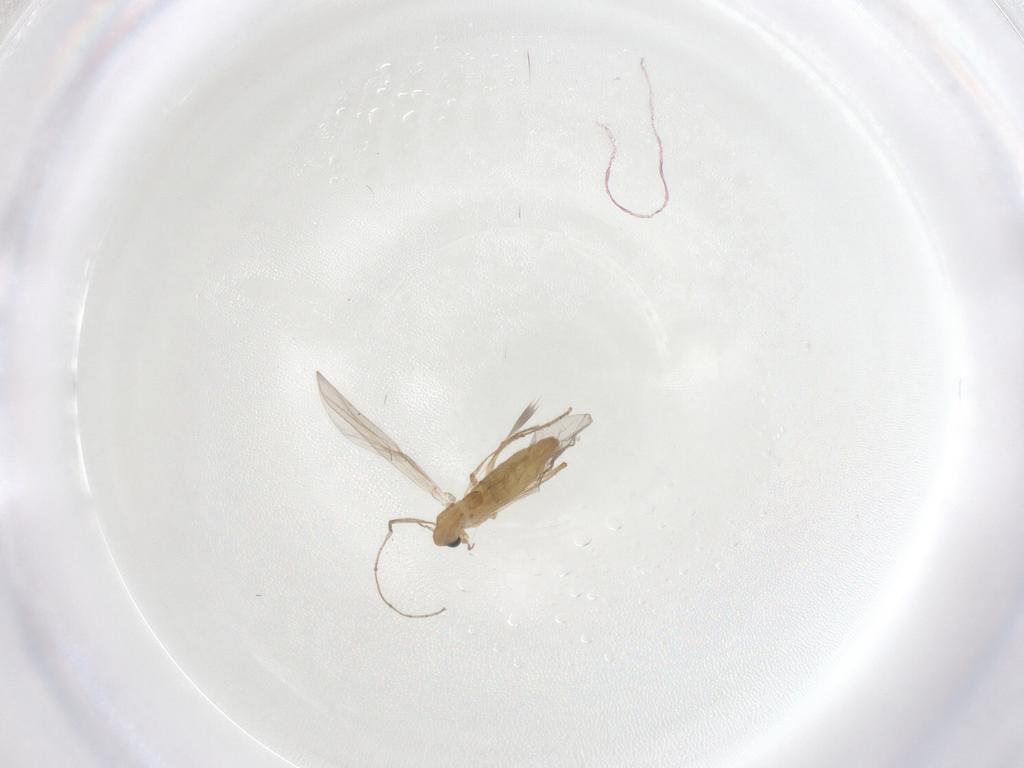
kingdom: Animalia
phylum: Arthropoda
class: Insecta
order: Diptera
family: Chironomidae
